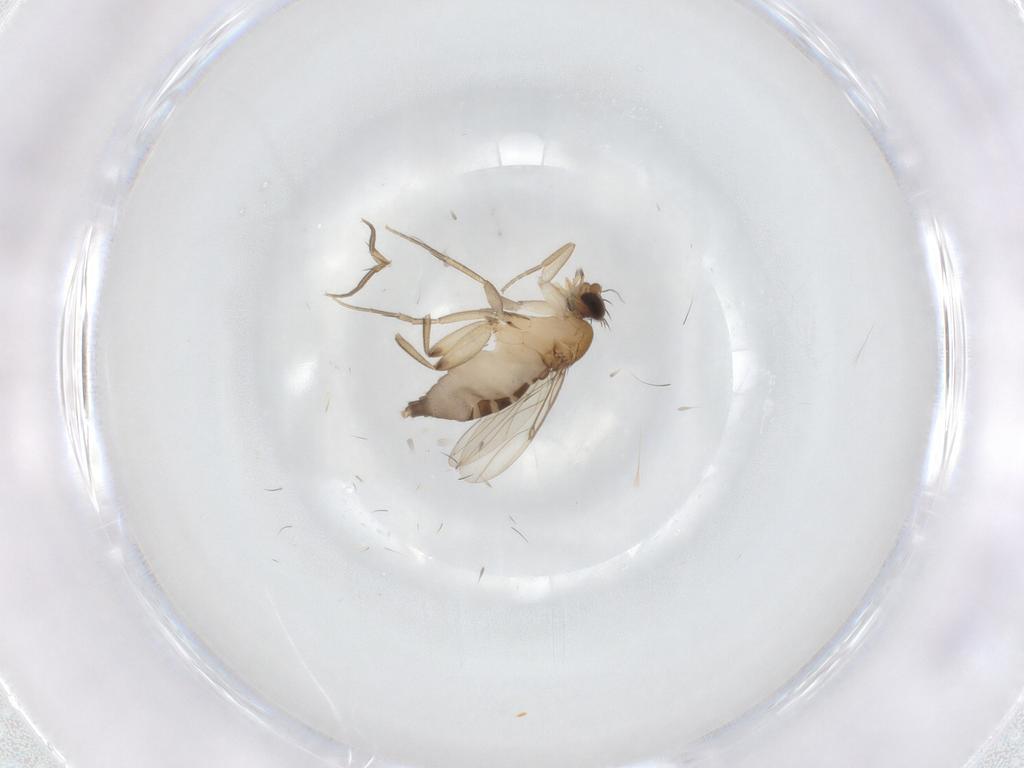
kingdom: Animalia
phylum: Arthropoda
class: Insecta
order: Diptera
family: Phoridae
